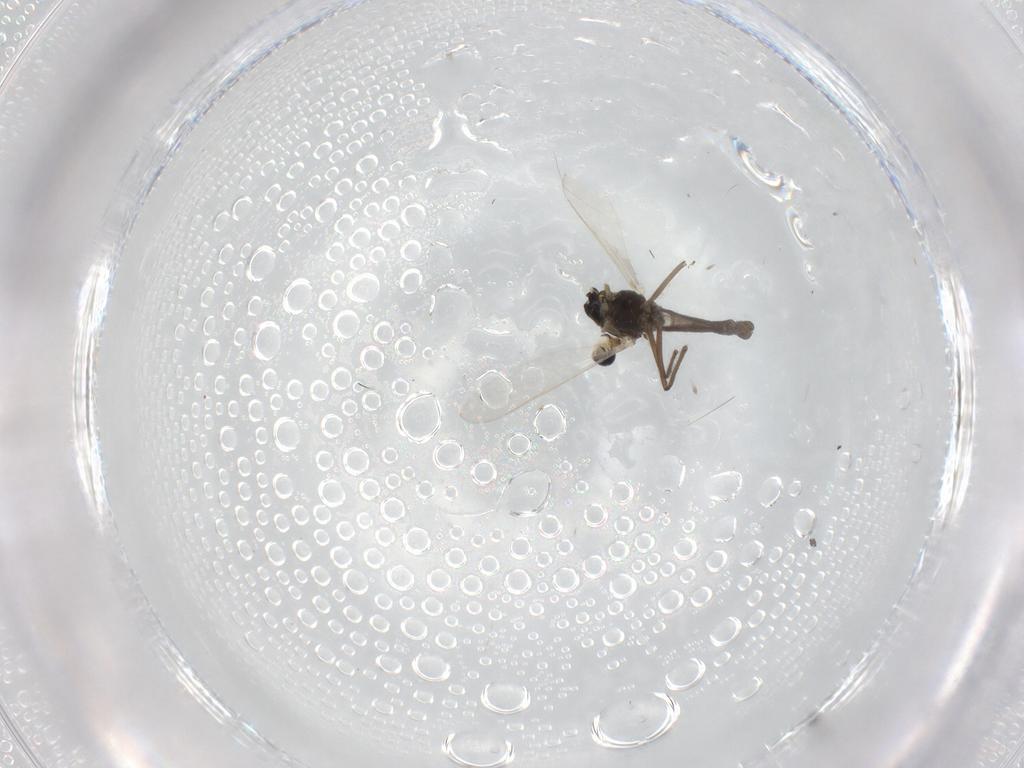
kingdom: Animalia
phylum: Arthropoda
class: Insecta
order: Diptera
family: Chironomidae
